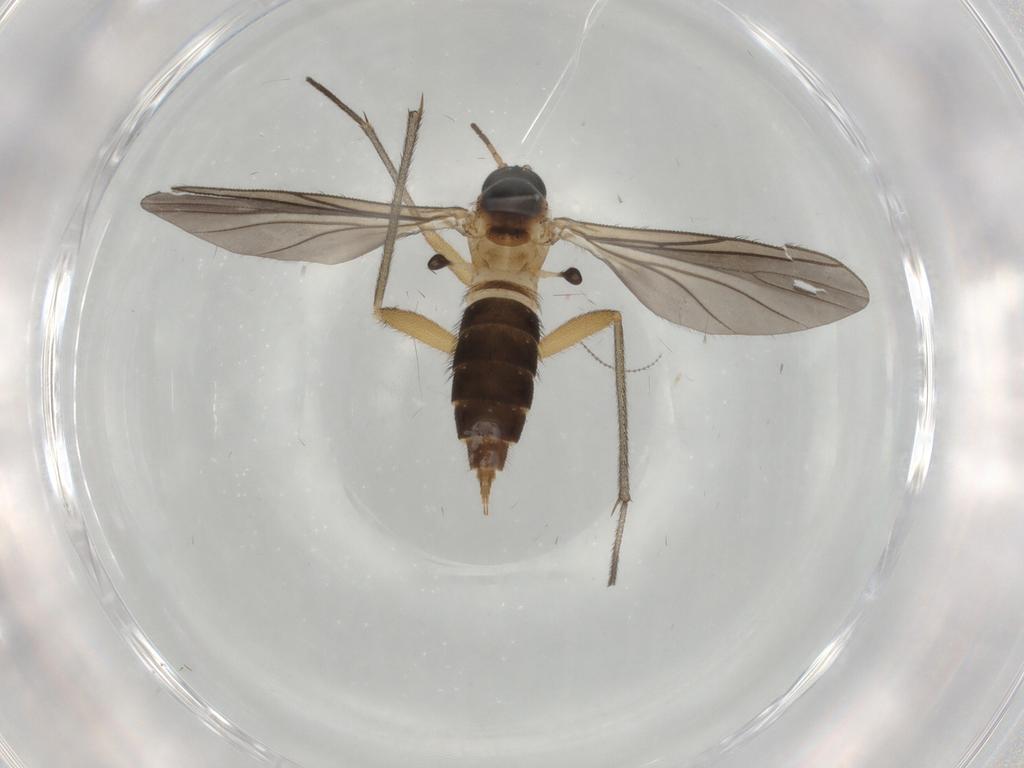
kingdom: Animalia
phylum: Arthropoda
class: Insecta
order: Diptera
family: Sciaridae
